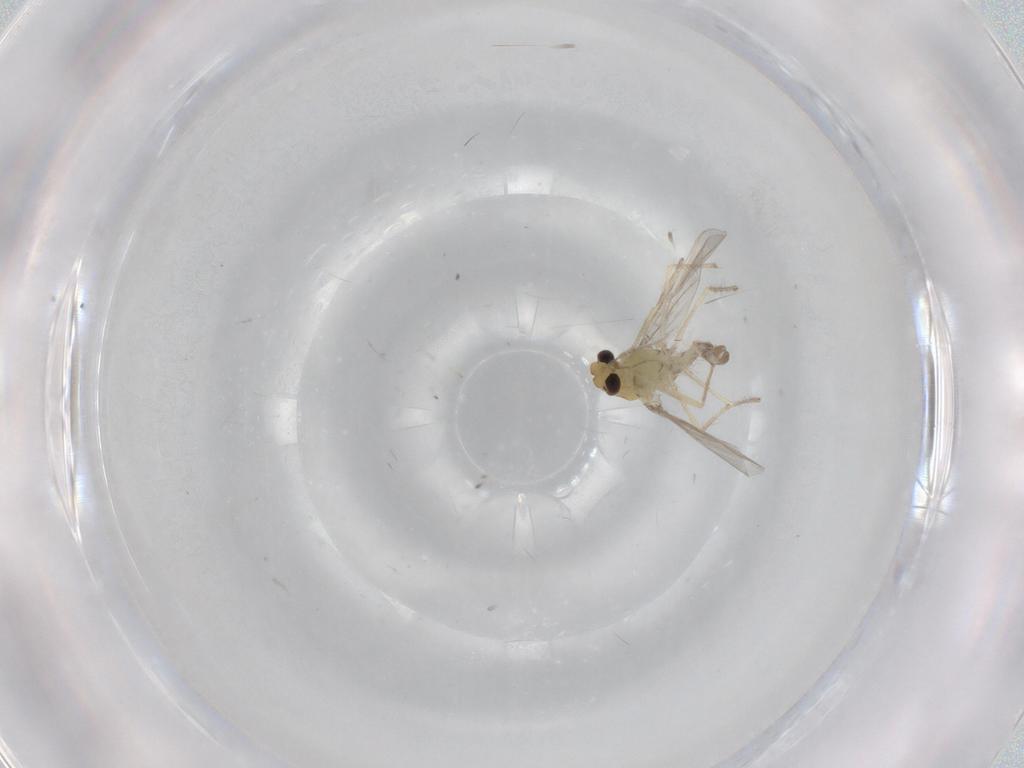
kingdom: Animalia
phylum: Arthropoda
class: Insecta
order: Diptera
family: Chironomidae
